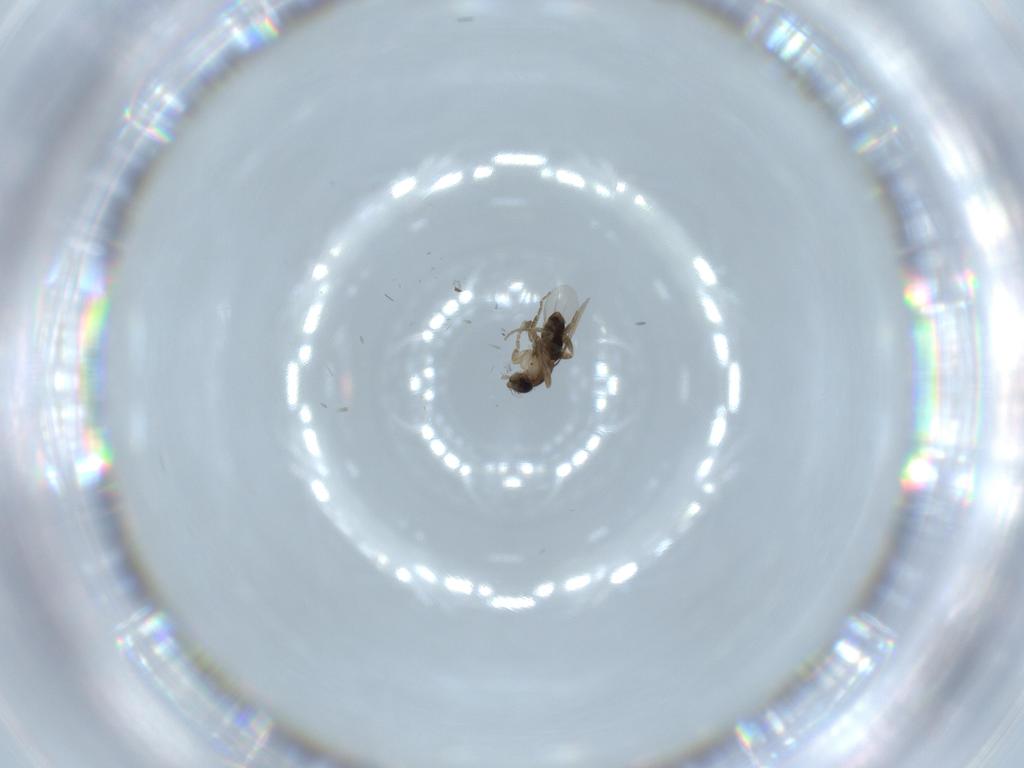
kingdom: Animalia
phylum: Arthropoda
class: Insecta
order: Diptera
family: Phoridae
